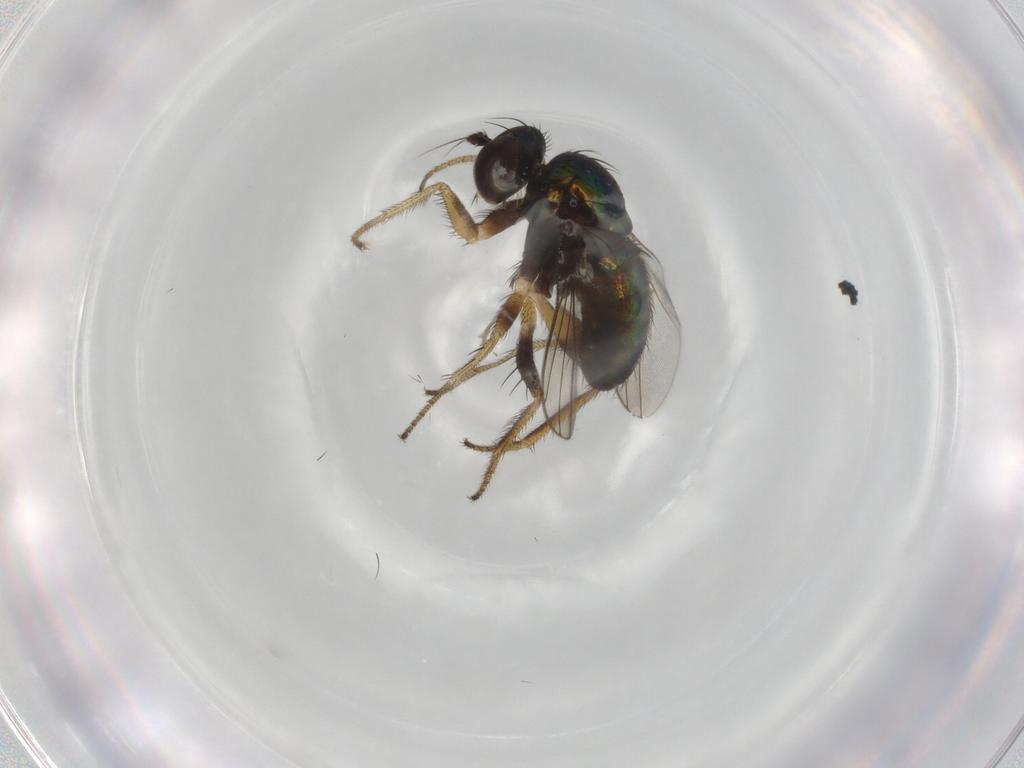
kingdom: Animalia
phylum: Arthropoda
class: Insecta
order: Diptera
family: Dolichopodidae
